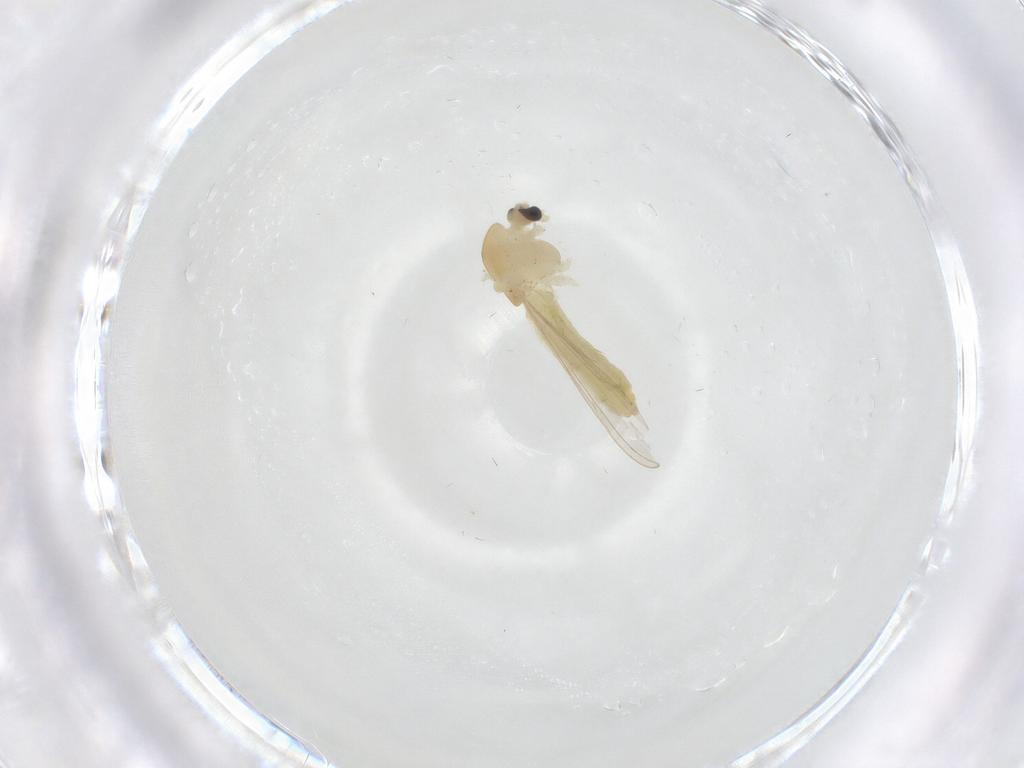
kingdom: Animalia
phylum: Arthropoda
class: Insecta
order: Diptera
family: Chironomidae
